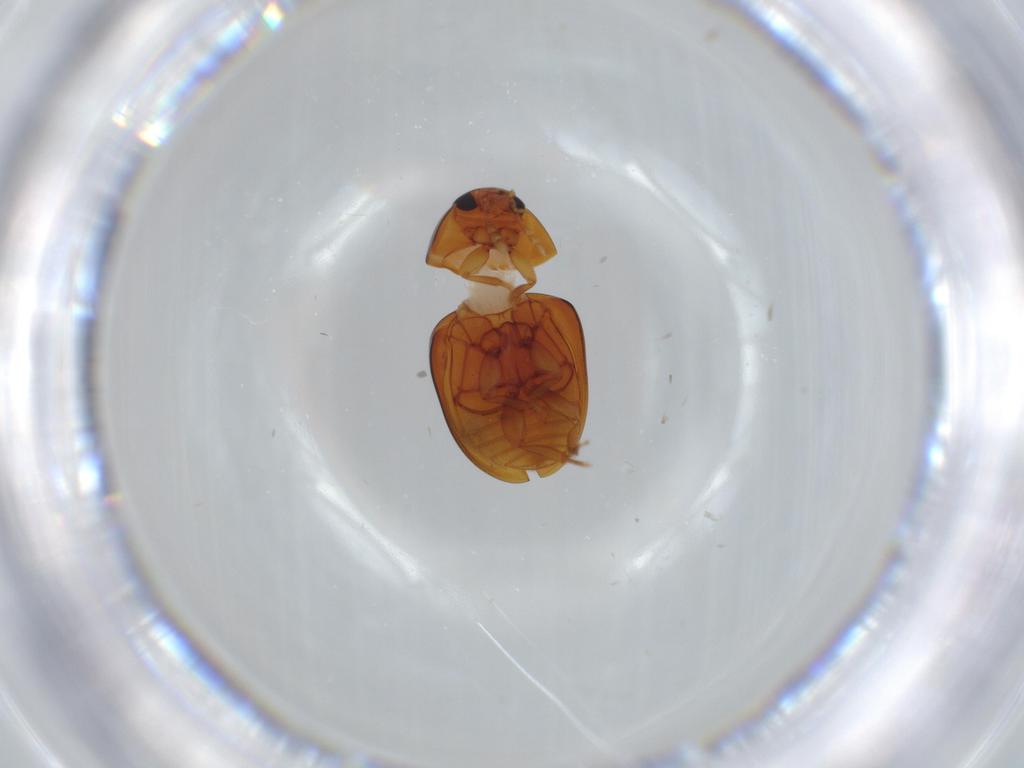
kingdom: Animalia
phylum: Arthropoda
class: Insecta
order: Coleoptera
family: Phalacridae
